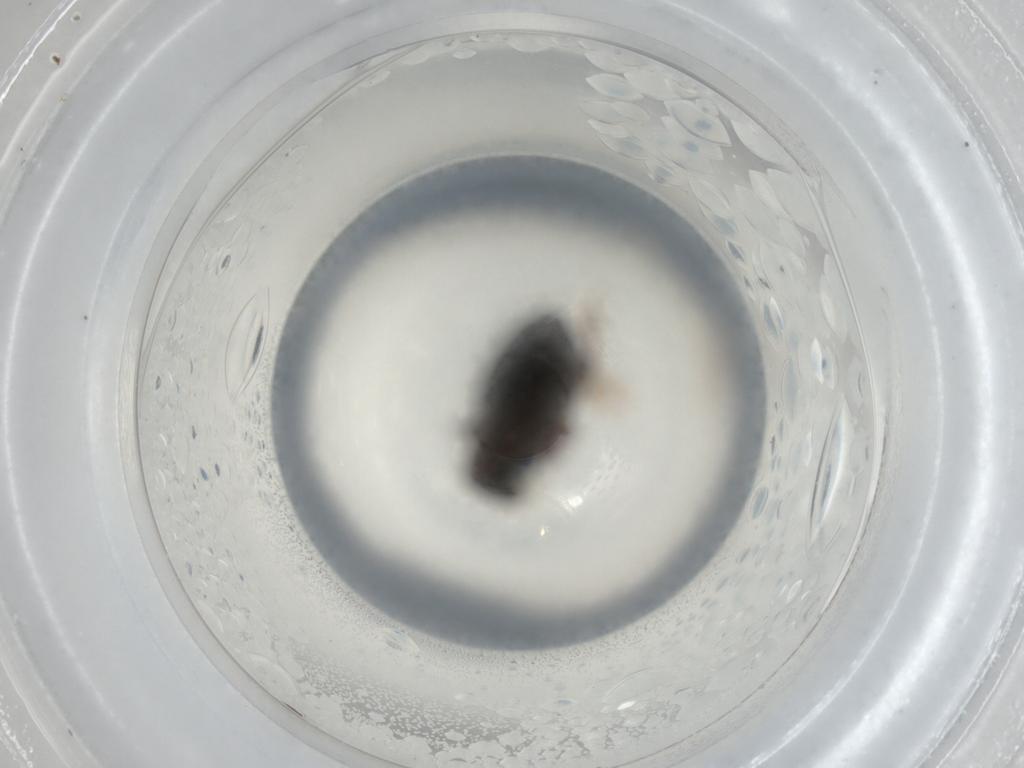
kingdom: Animalia
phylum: Arthropoda
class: Insecta
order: Coleoptera
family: Chrysomelidae
